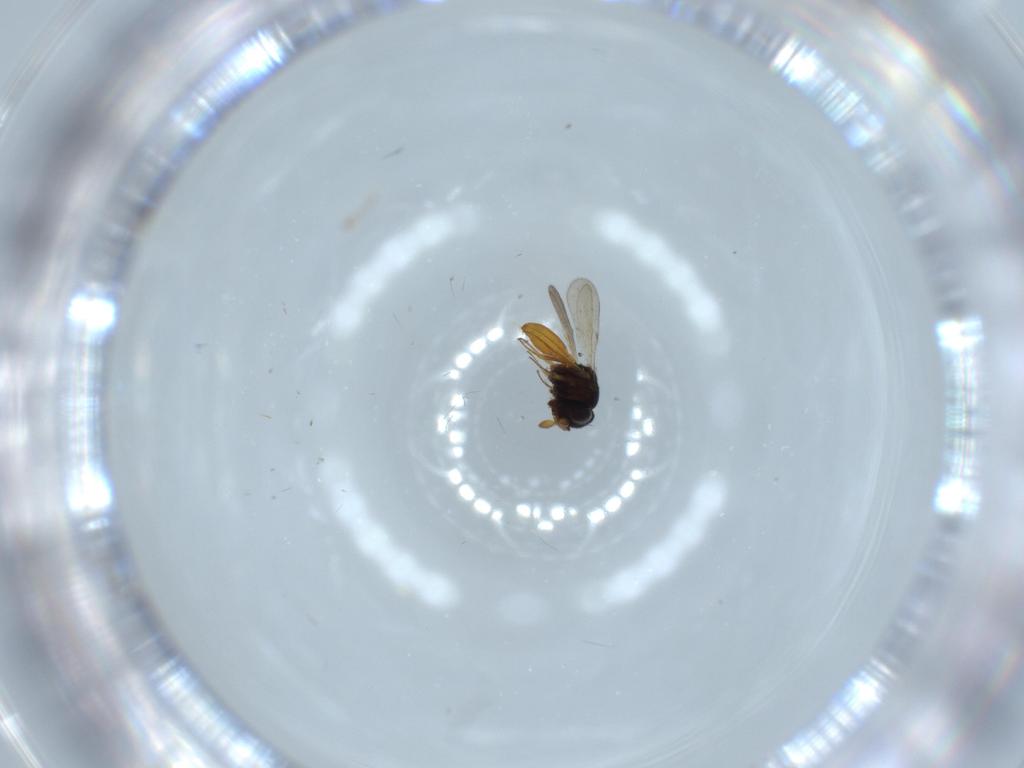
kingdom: Animalia
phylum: Arthropoda
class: Insecta
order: Hymenoptera
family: Scelionidae
